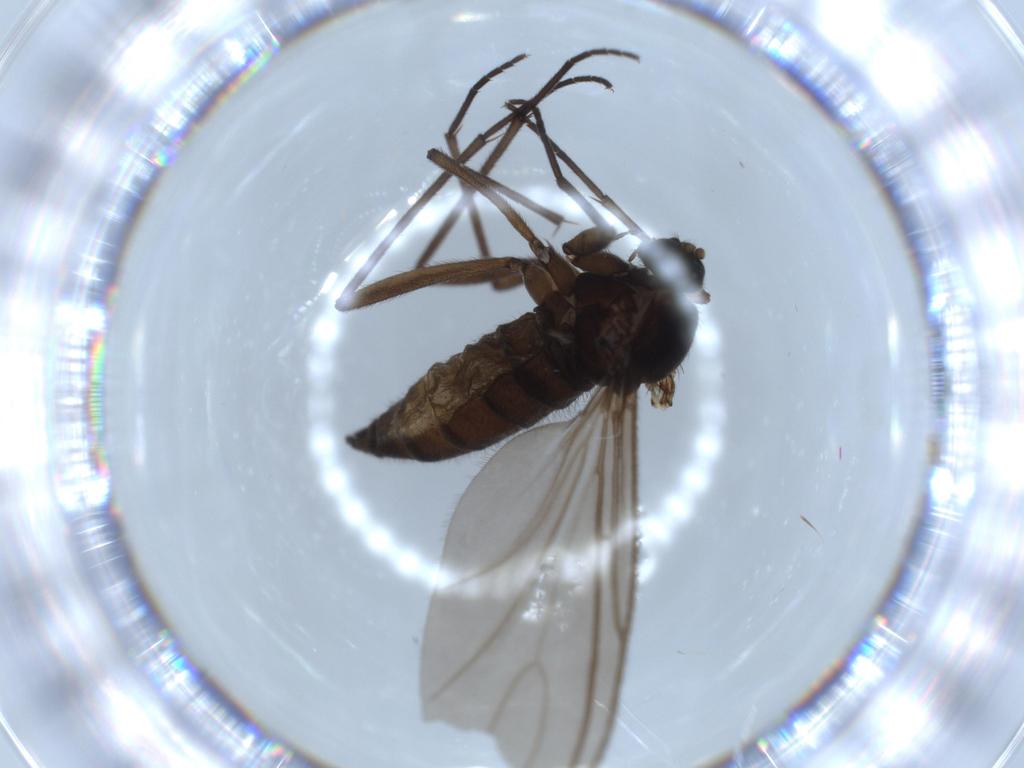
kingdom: Animalia
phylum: Arthropoda
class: Insecta
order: Diptera
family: Sciaridae
